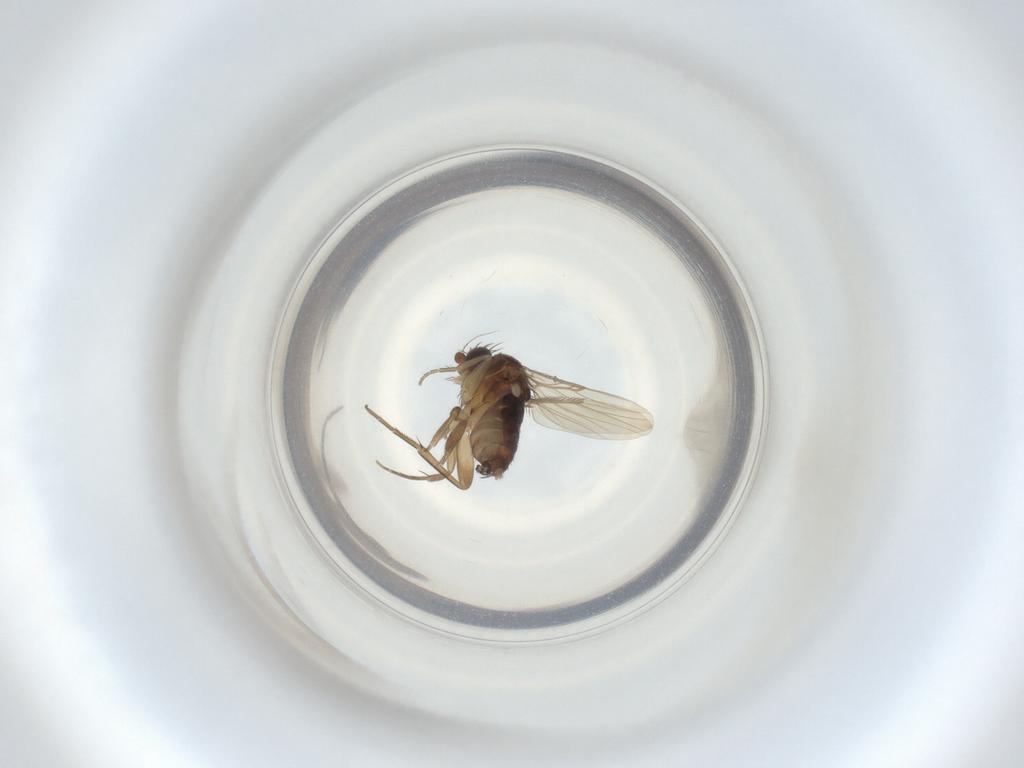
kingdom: Animalia
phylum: Arthropoda
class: Insecta
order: Diptera
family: Phoridae
